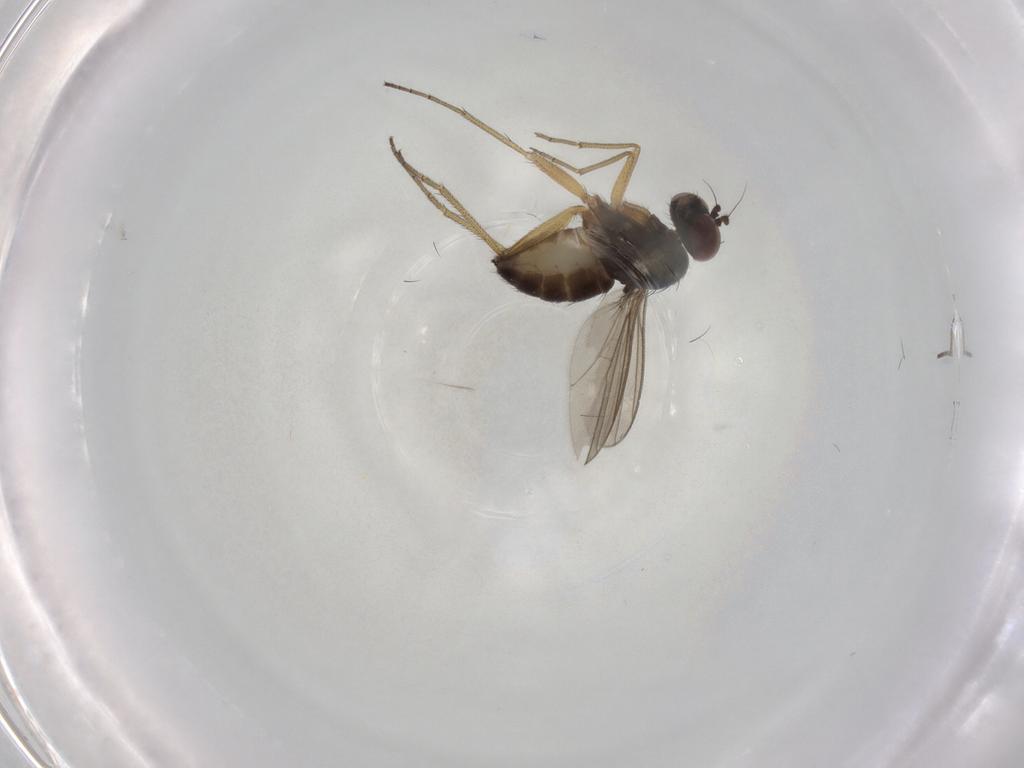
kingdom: Animalia
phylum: Arthropoda
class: Insecta
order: Diptera
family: Dolichopodidae
